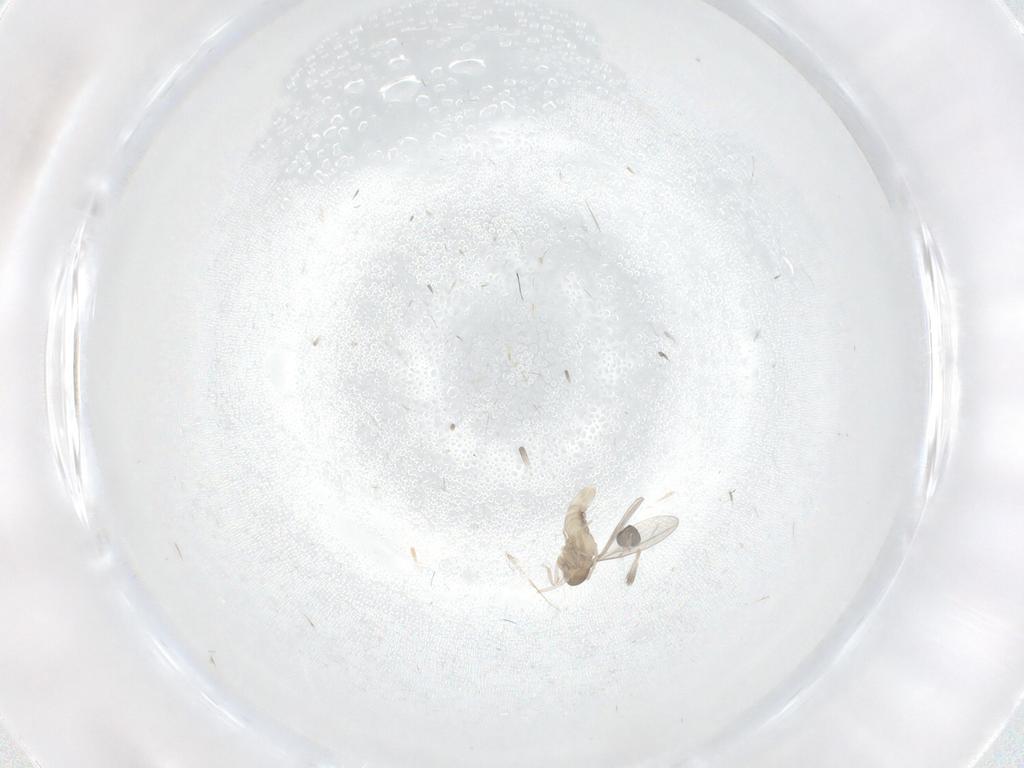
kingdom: Animalia
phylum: Arthropoda
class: Insecta
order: Diptera
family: Cecidomyiidae
